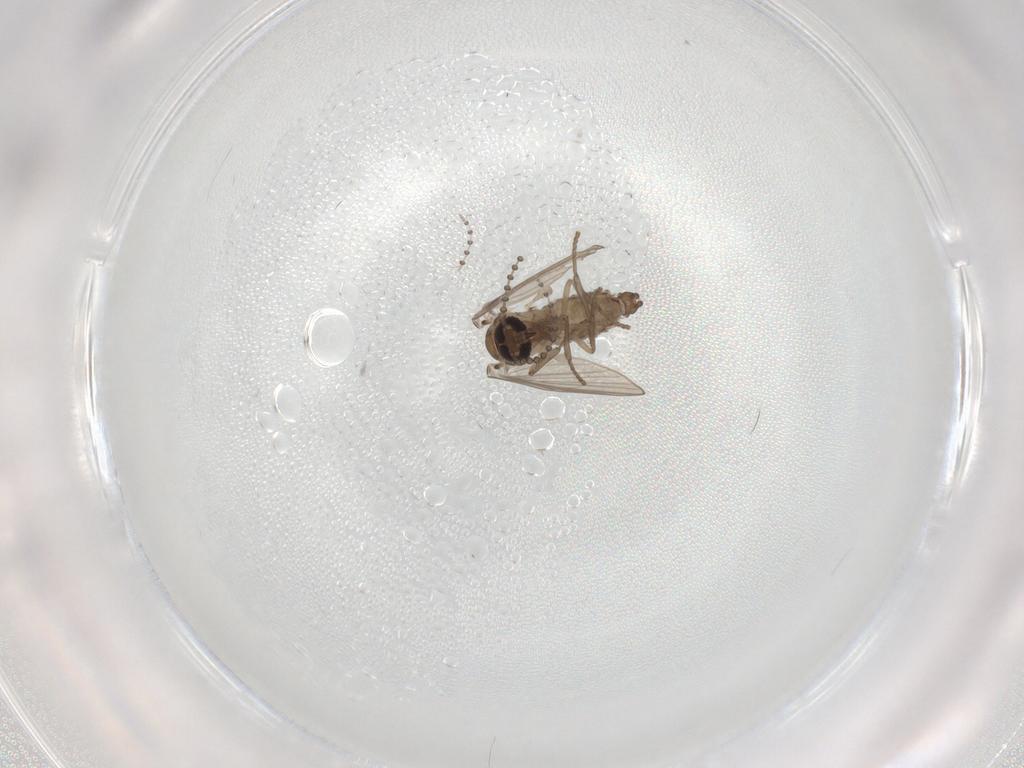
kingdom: Animalia
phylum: Arthropoda
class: Insecta
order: Diptera
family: Cecidomyiidae
